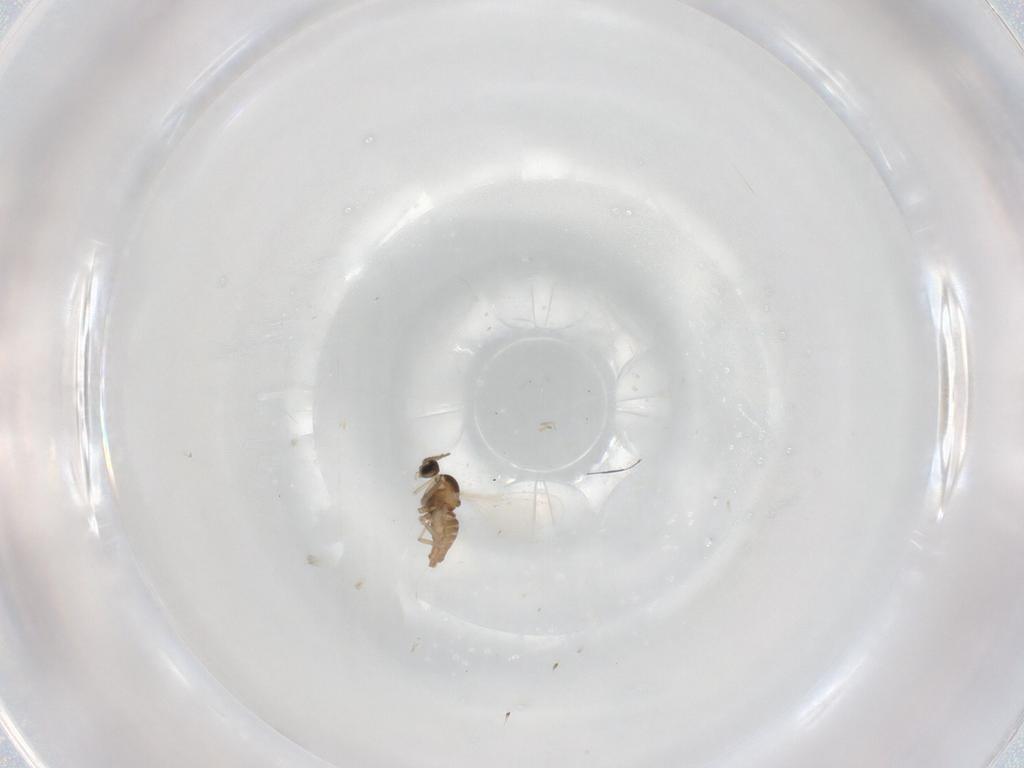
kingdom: Animalia
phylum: Arthropoda
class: Insecta
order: Diptera
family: Cecidomyiidae
